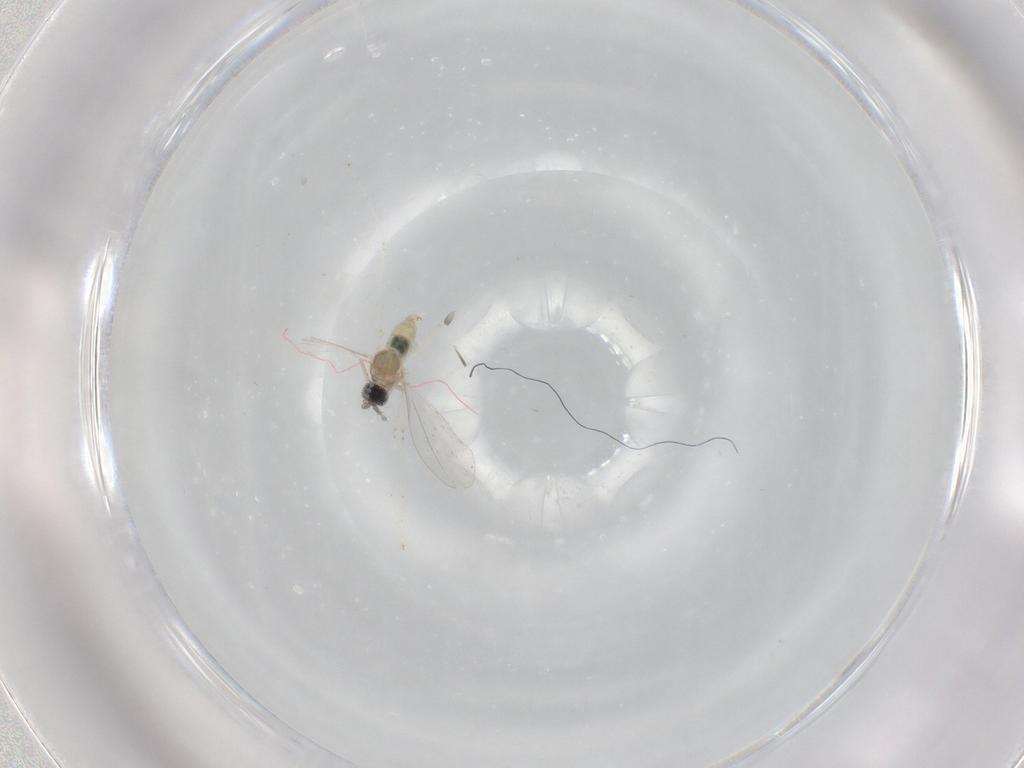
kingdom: Animalia
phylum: Arthropoda
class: Insecta
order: Diptera
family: Cecidomyiidae
